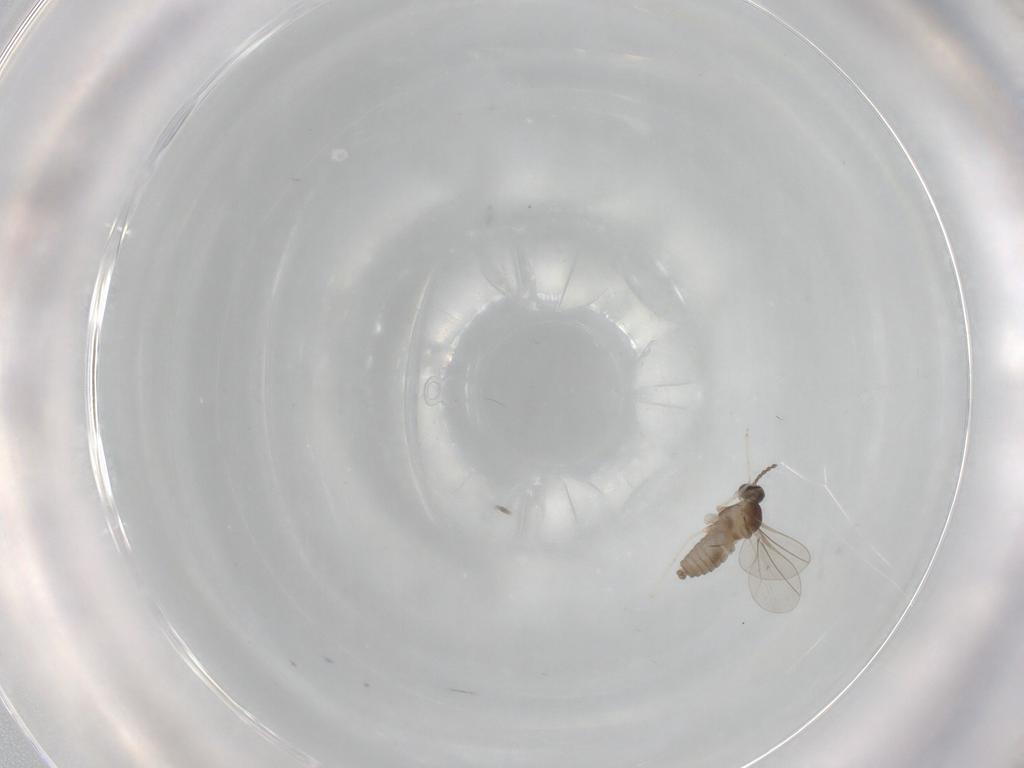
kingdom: Animalia
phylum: Arthropoda
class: Insecta
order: Diptera
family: Cecidomyiidae
